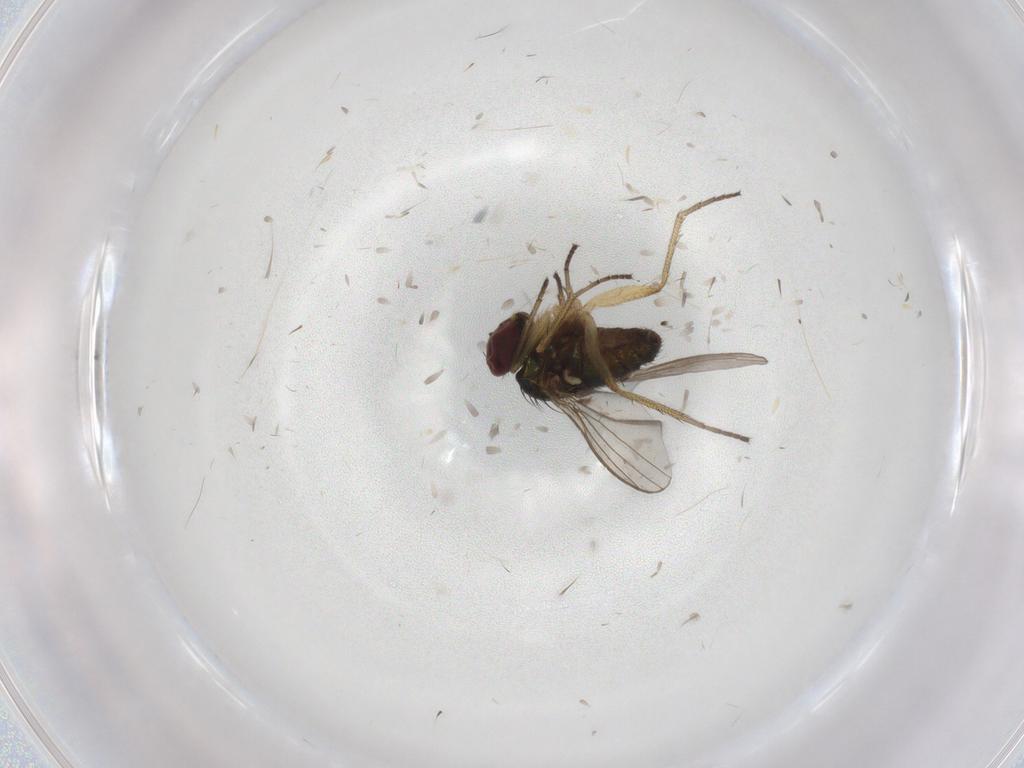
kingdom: Animalia
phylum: Arthropoda
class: Insecta
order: Diptera
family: Dolichopodidae
